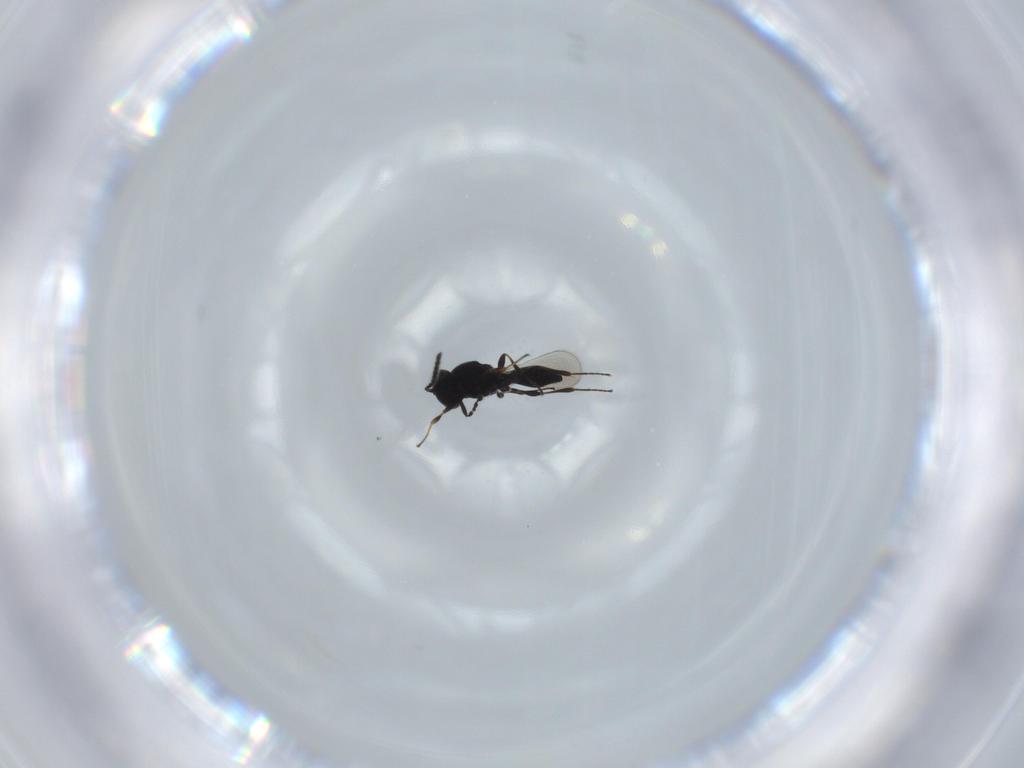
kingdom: Animalia
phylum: Arthropoda
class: Insecta
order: Hymenoptera
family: Platygastridae
